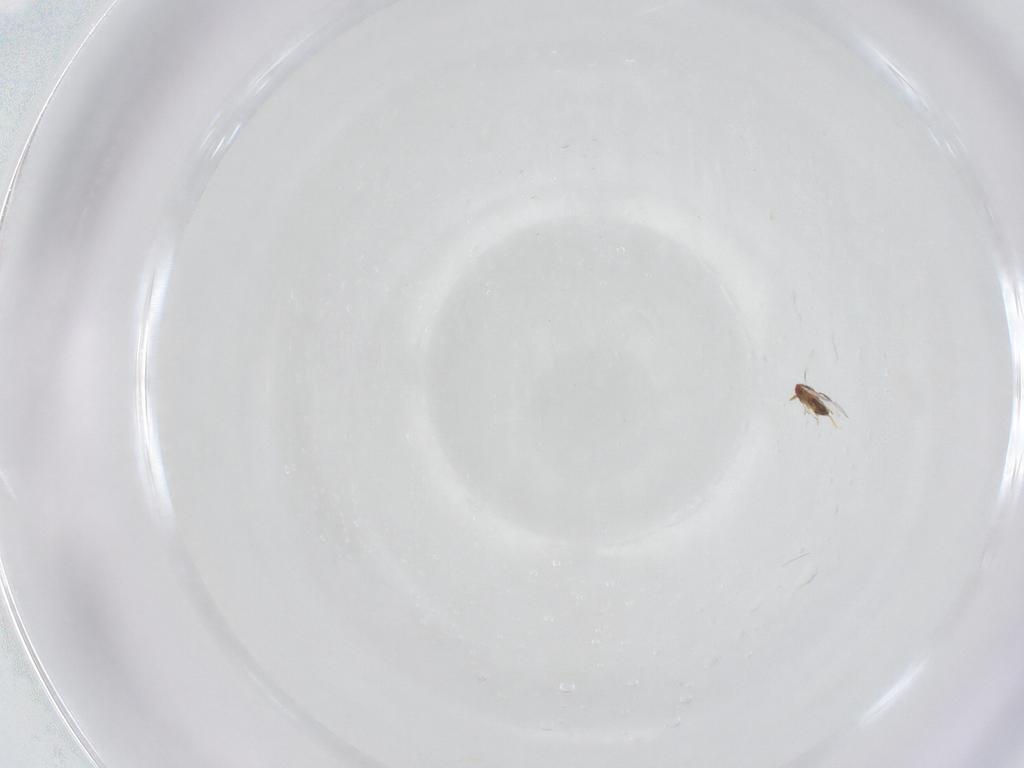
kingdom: Animalia
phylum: Arthropoda
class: Insecta
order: Hymenoptera
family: Trichogrammatidae
